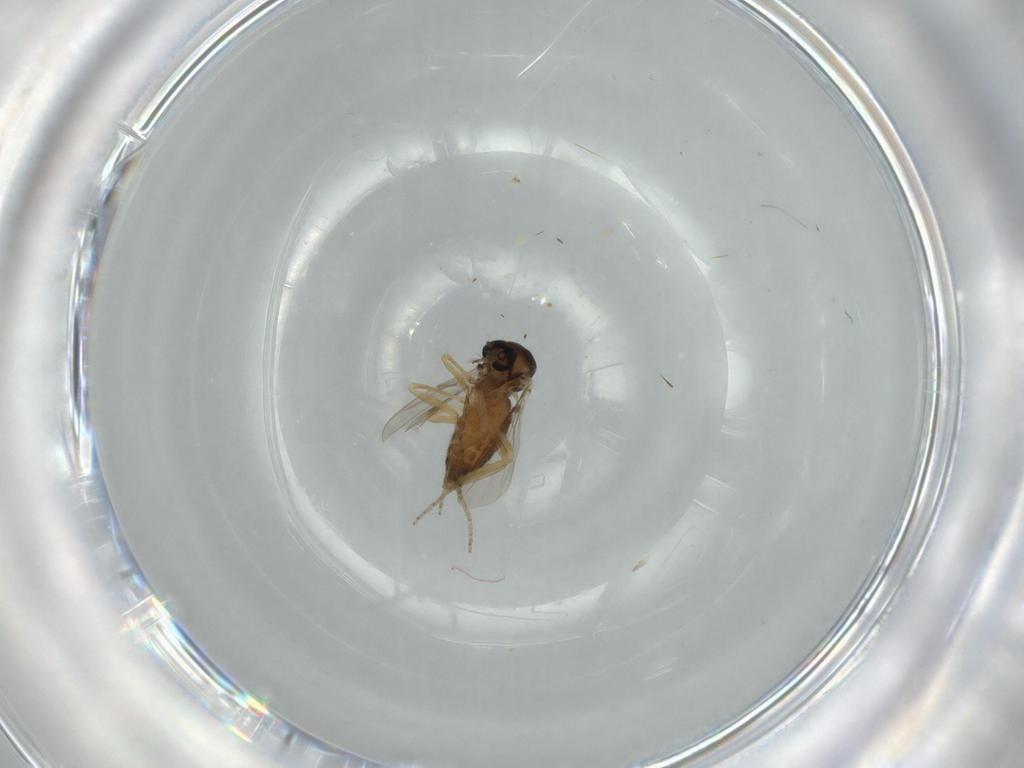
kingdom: Animalia
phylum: Arthropoda
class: Insecta
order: Diptera
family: Ceratopogonidae
